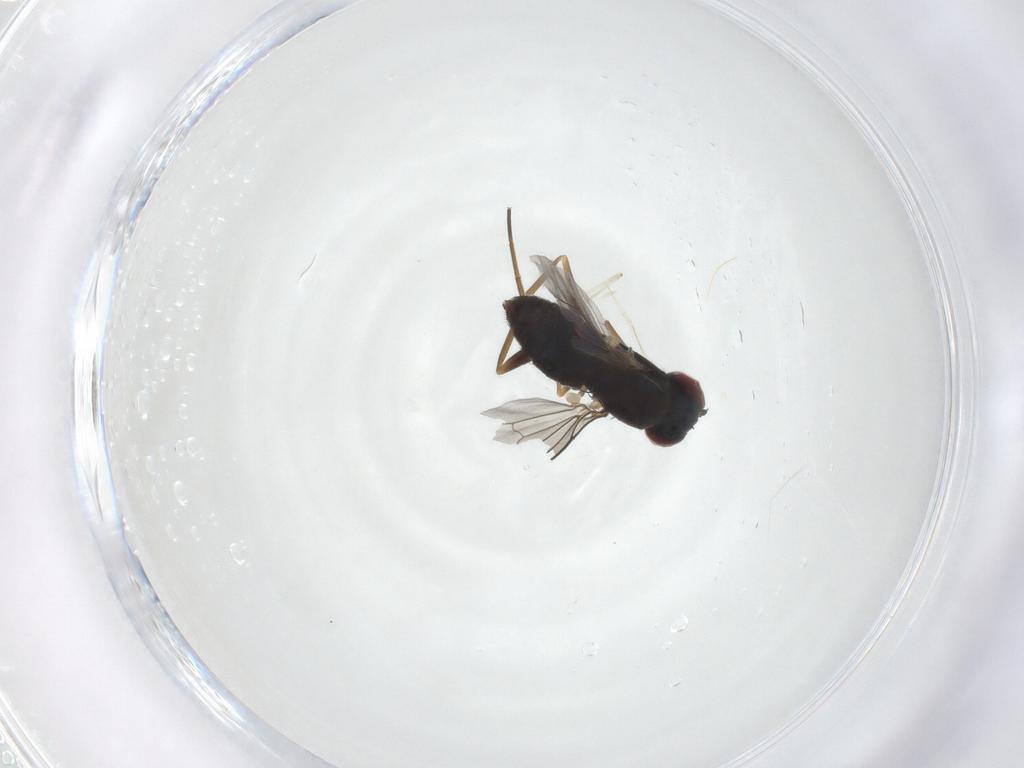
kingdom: Animalia
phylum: Arthropoda
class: Insecta
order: Diptera
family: Dolichopodidae
